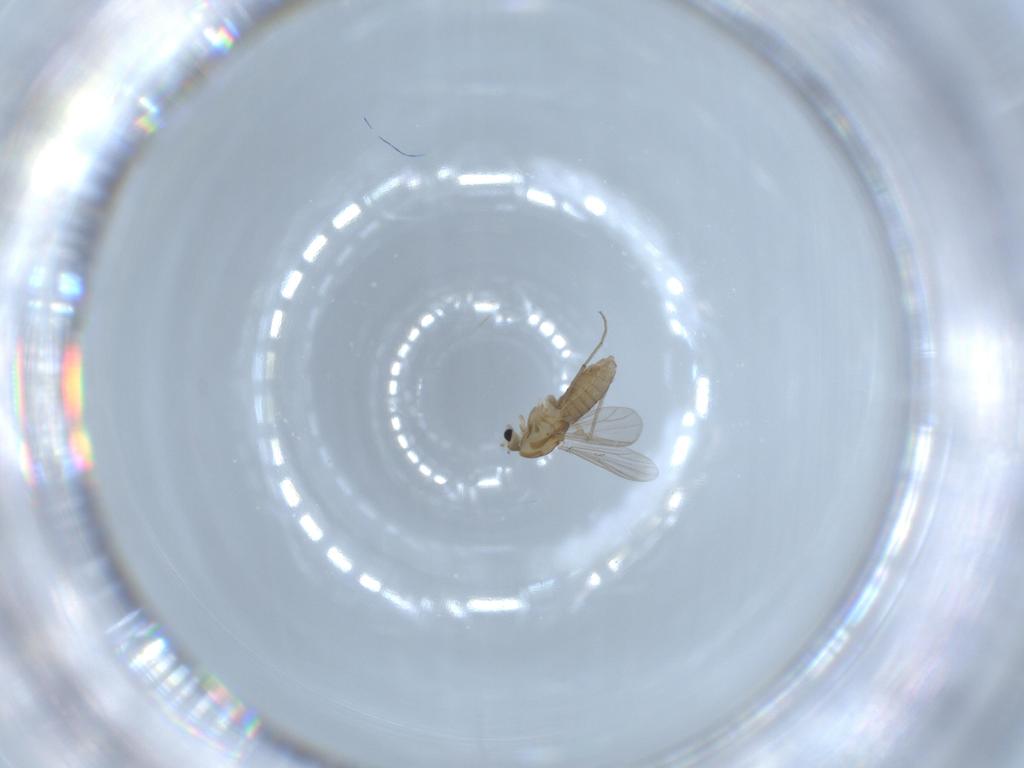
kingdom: Animalia
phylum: Arthropoda
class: Insecta
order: Diptera
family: Chironomidae
